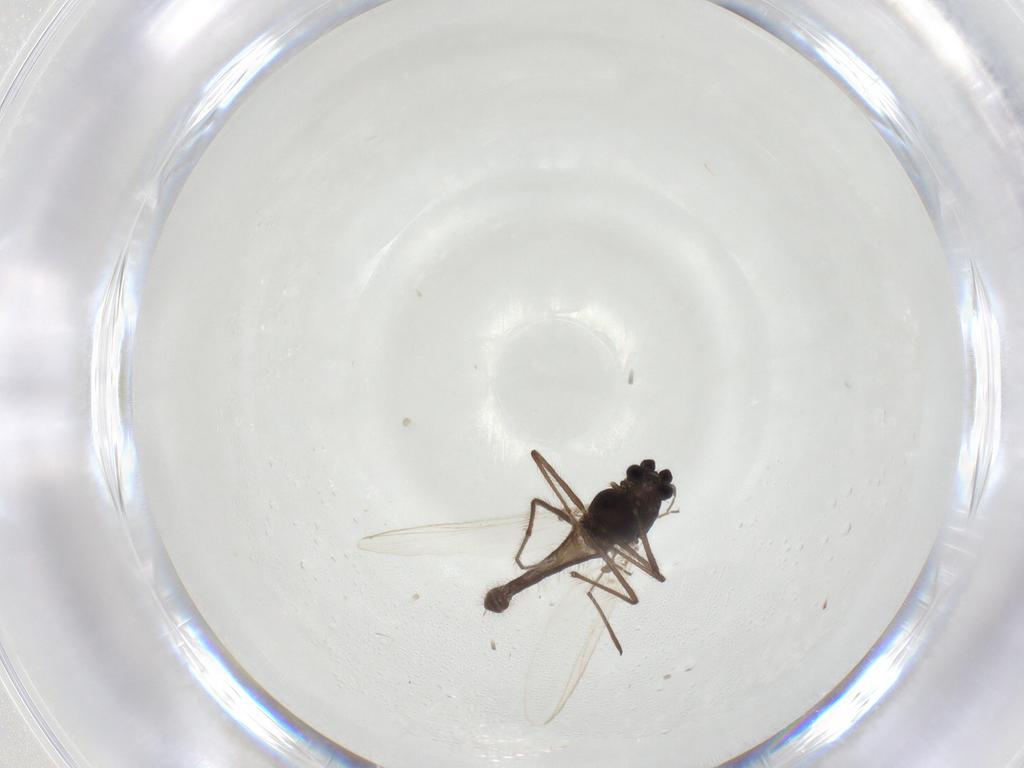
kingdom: Animalia
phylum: Arthropoda
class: Insecta
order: Diptera
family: Chironomidae
